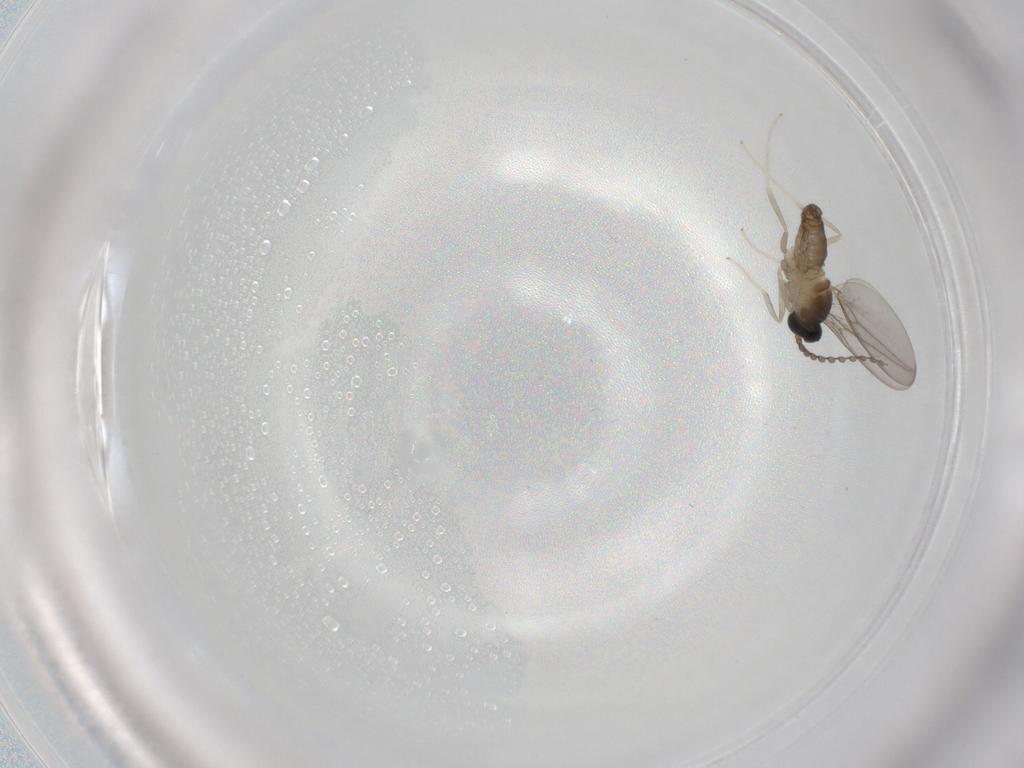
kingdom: Animalia
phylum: Arthropoda
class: Insecta
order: Diptera
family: Cecidomyiidae
